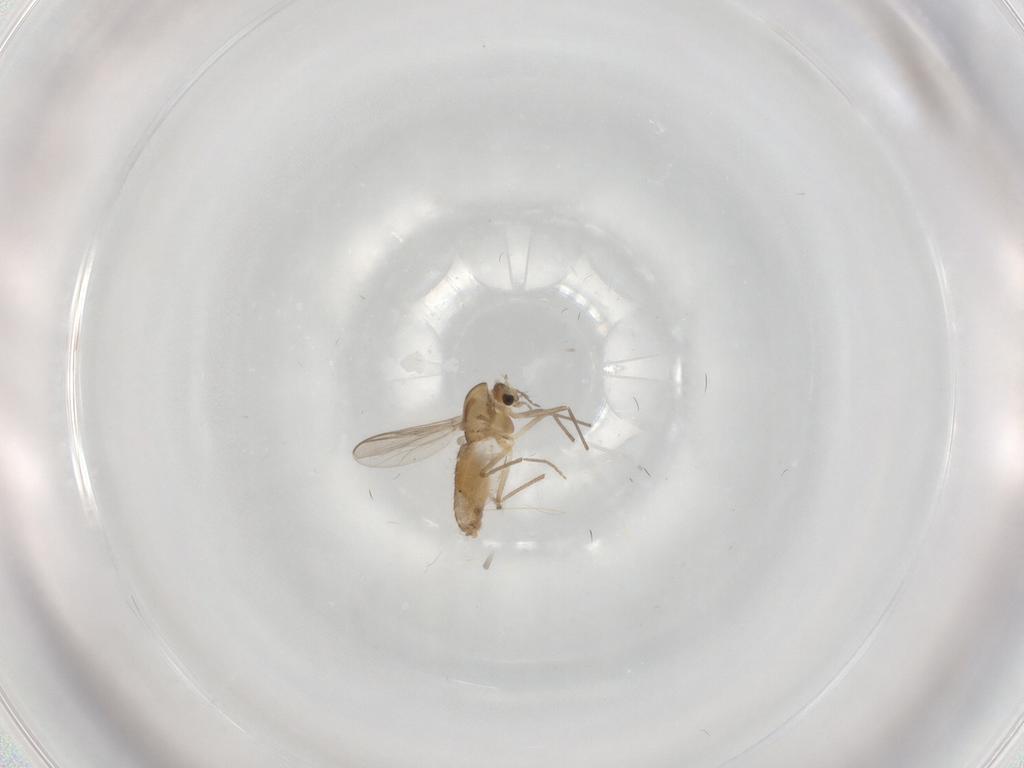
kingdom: Animalia
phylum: Arthropoda
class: Insecta
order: Diptera
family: Chironomidae
